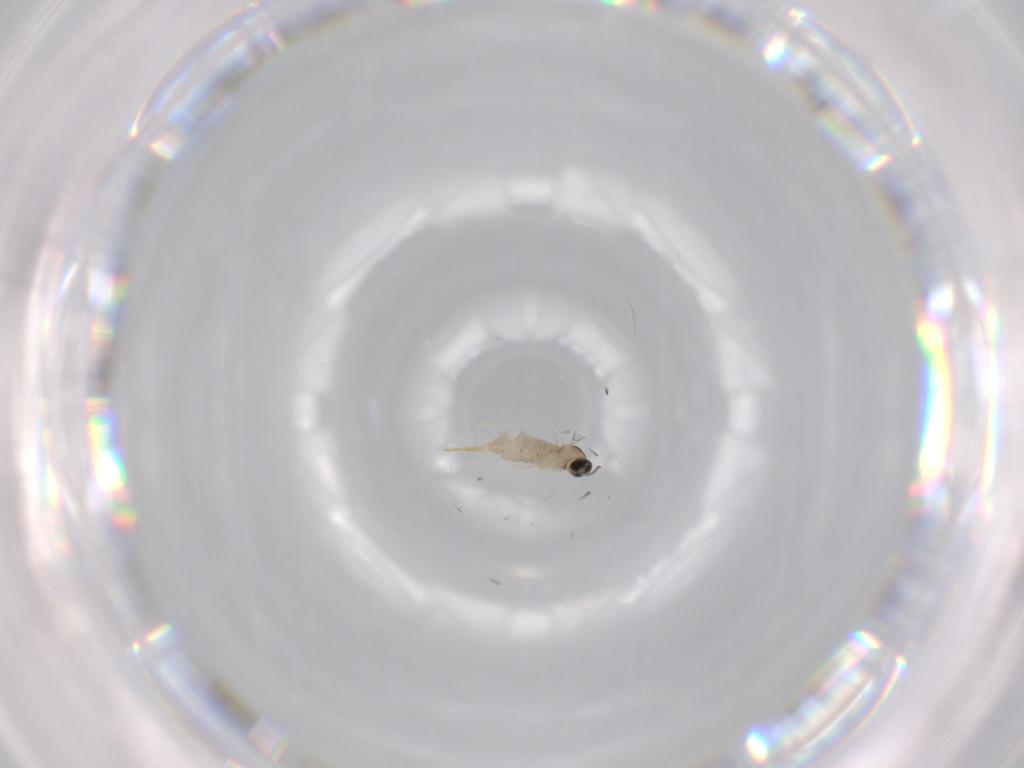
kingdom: Animalia
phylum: Arthropoda
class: Insecta
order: Diptera
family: Cecidomyiidae
